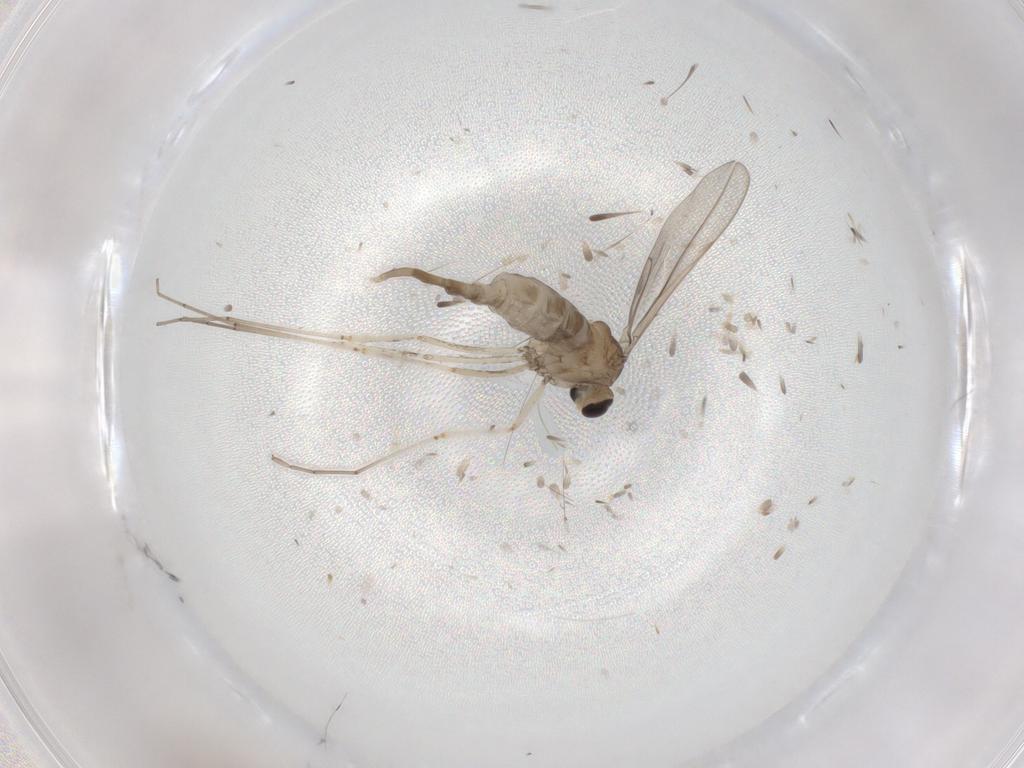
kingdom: Animalia
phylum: Arthropoda
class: Insecta
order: Diptera
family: Cecidomyiidae
